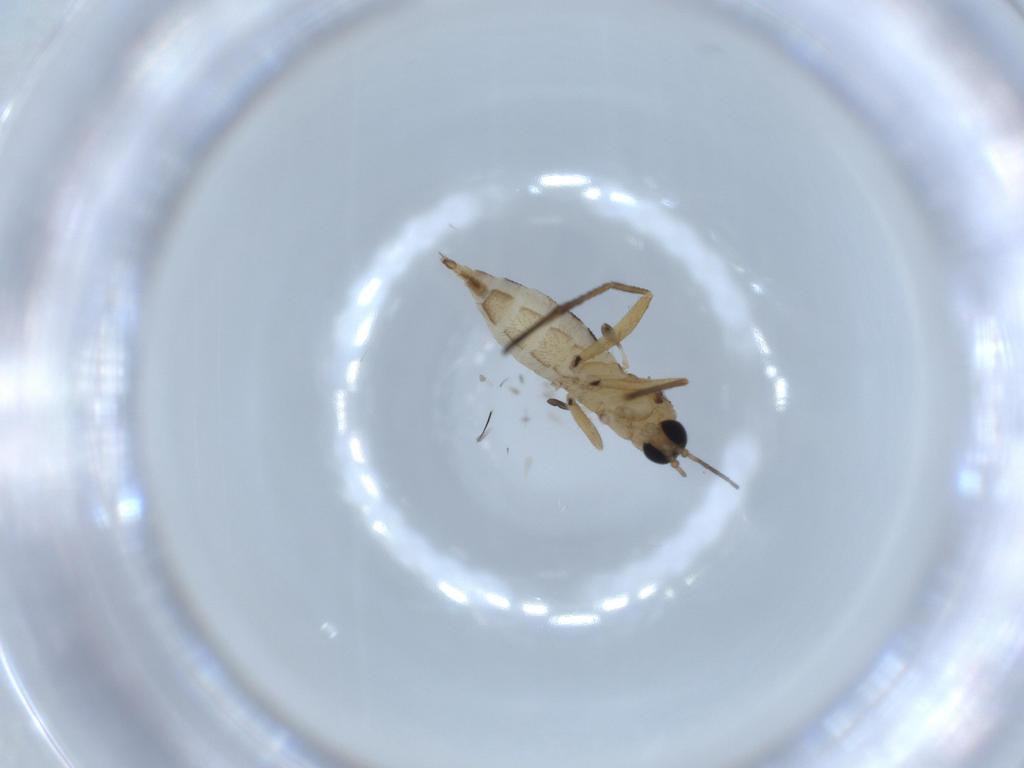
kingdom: Animalia
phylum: Arthropoda
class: Insecta
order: Diptera
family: Sciaridae
